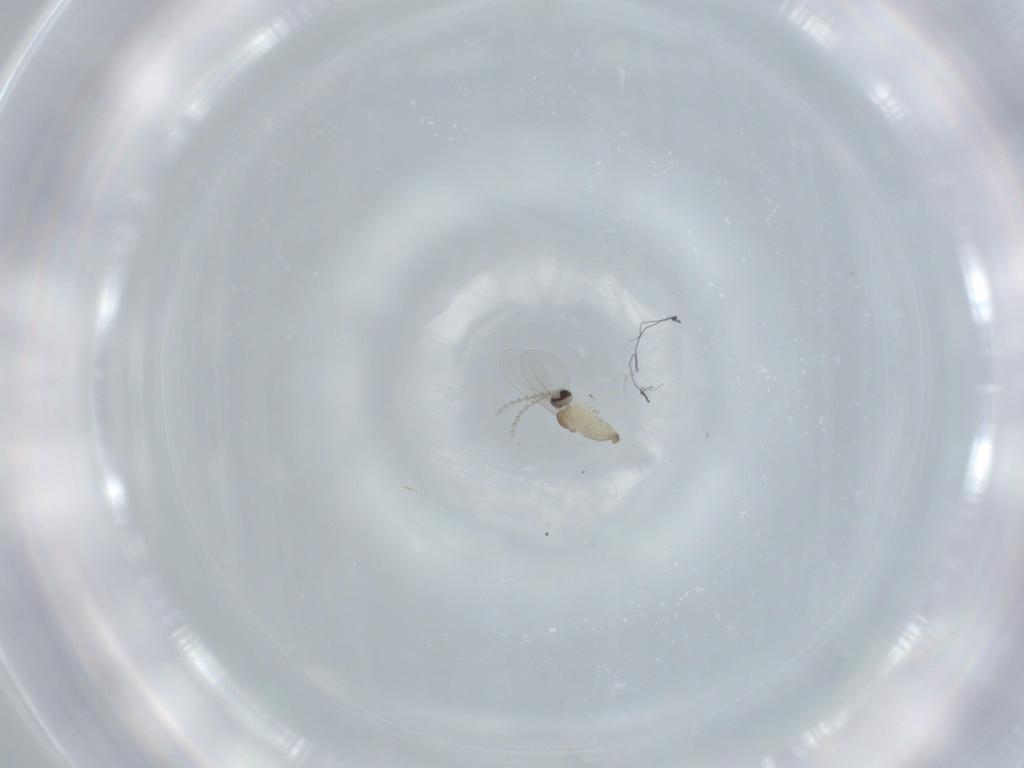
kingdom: Animalia
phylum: Arthropoda
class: Insecta
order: Diptera
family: Cecidomyiidae
